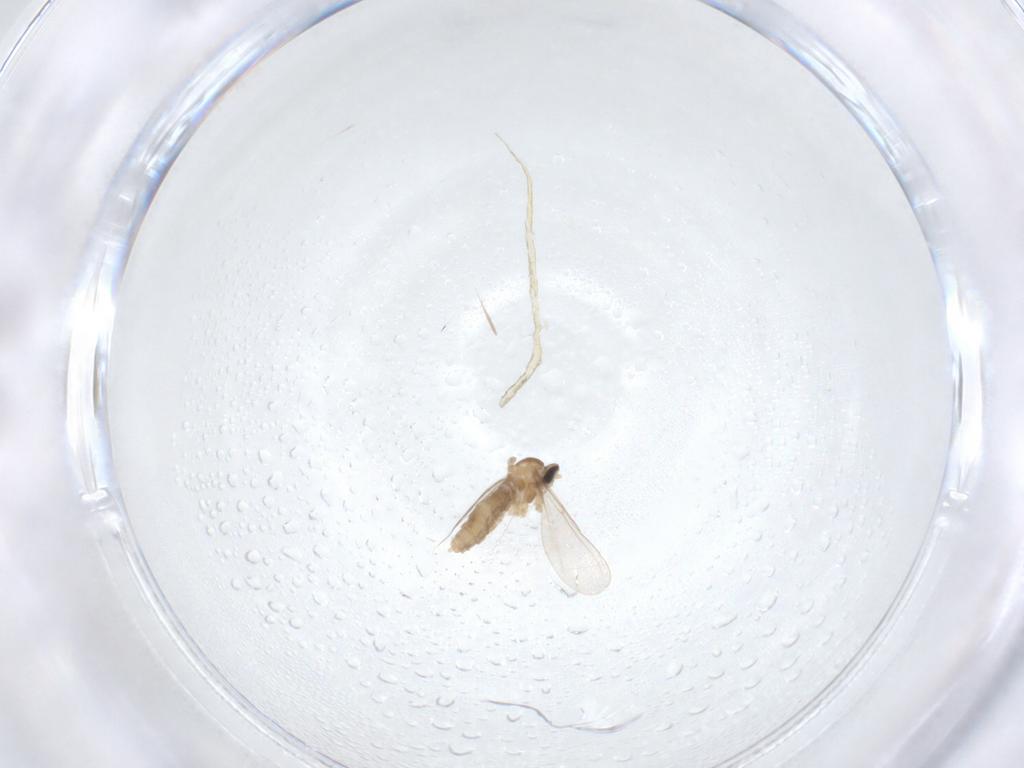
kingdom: Animalia
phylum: Arthropoda
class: Insecta
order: Diptera
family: Cecidomyiidae
